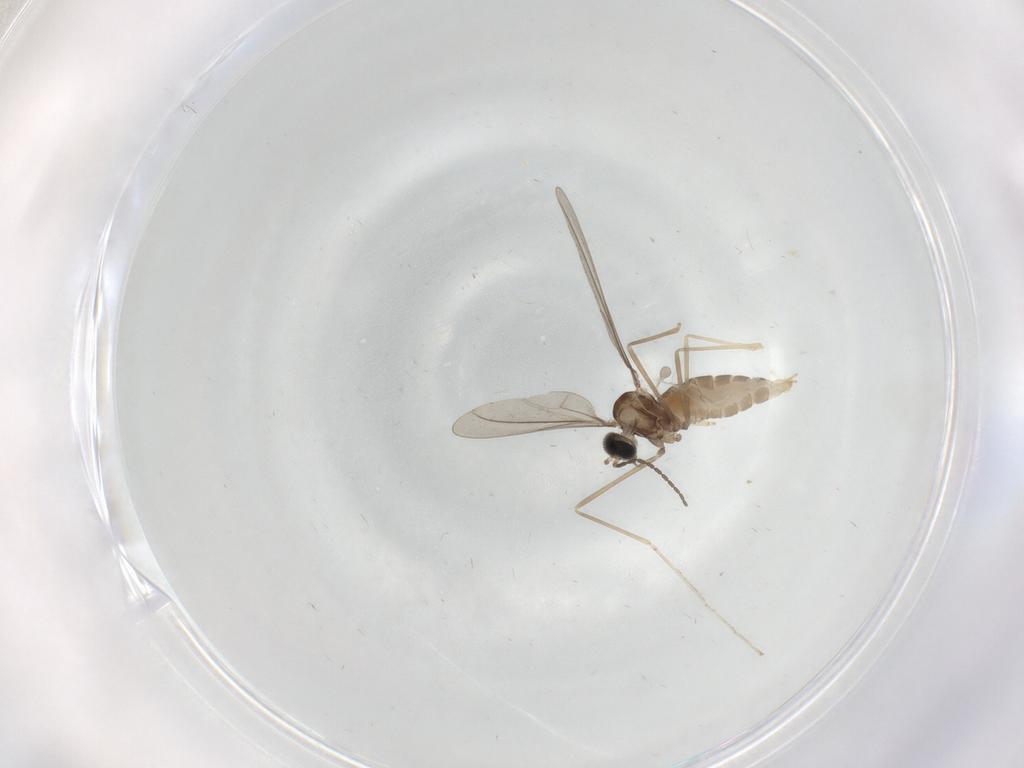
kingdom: Animalia
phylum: Arthropoda
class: Insecta
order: Diptera
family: Cecidomyiidae
